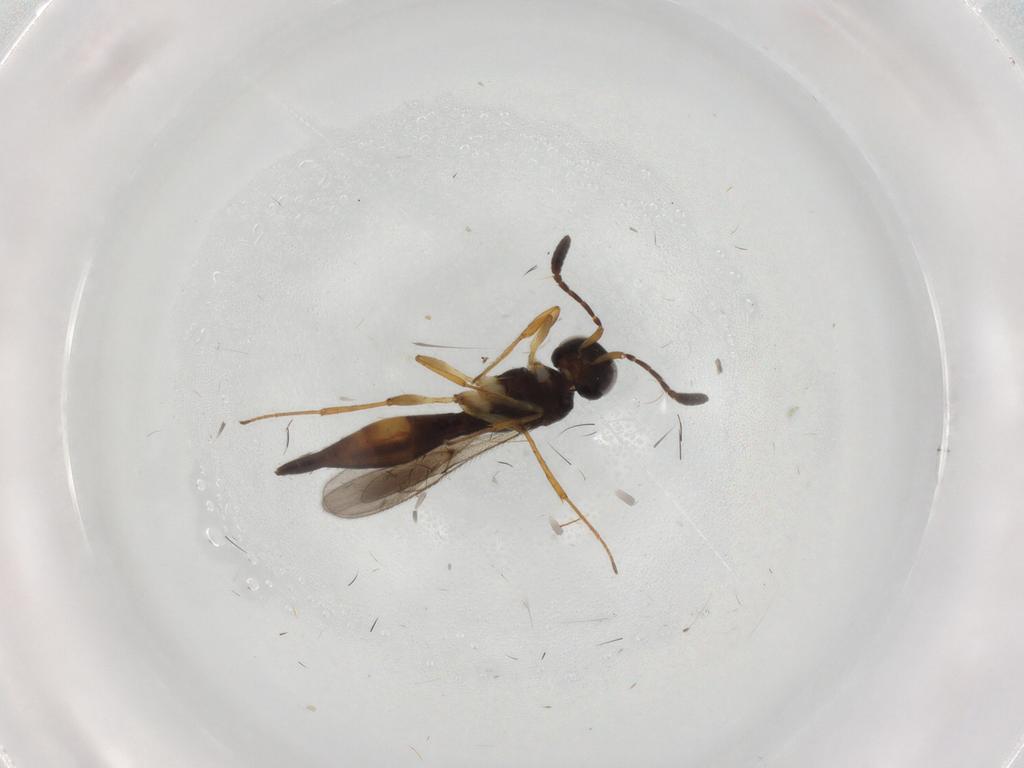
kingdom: Animalia
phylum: Arthropoda
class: Insecta
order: Hymenoptera
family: Scelionidae
